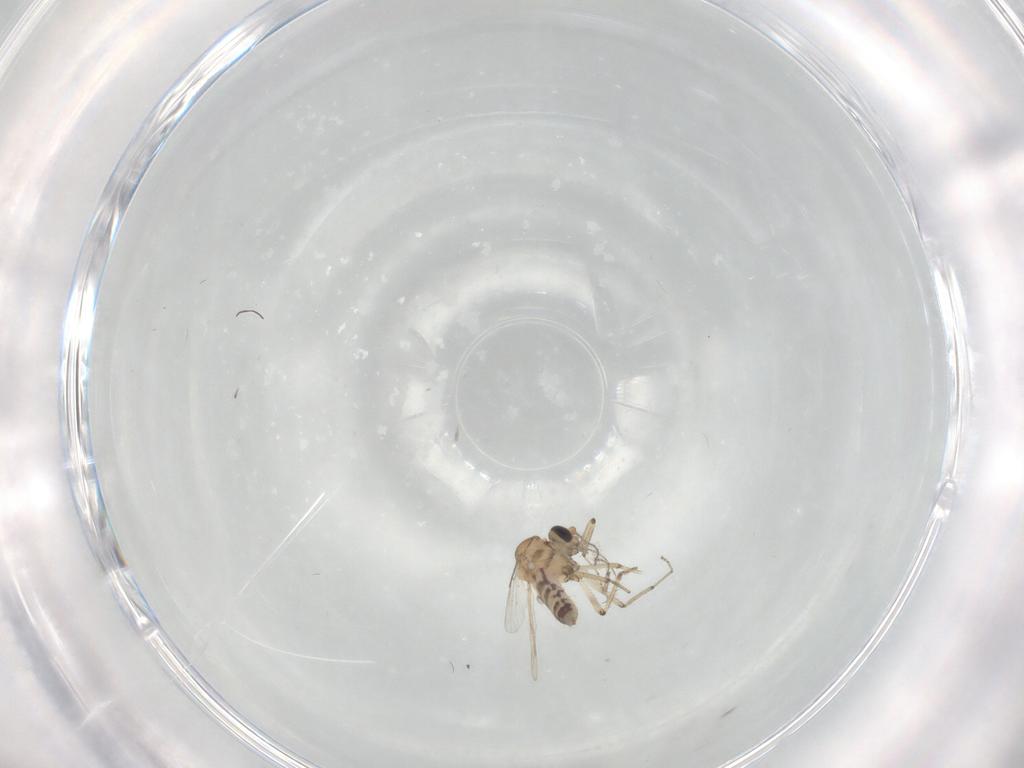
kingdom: Animalia
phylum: Arthropoda
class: Insecta
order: Diptera
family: Ceratopogonidae
